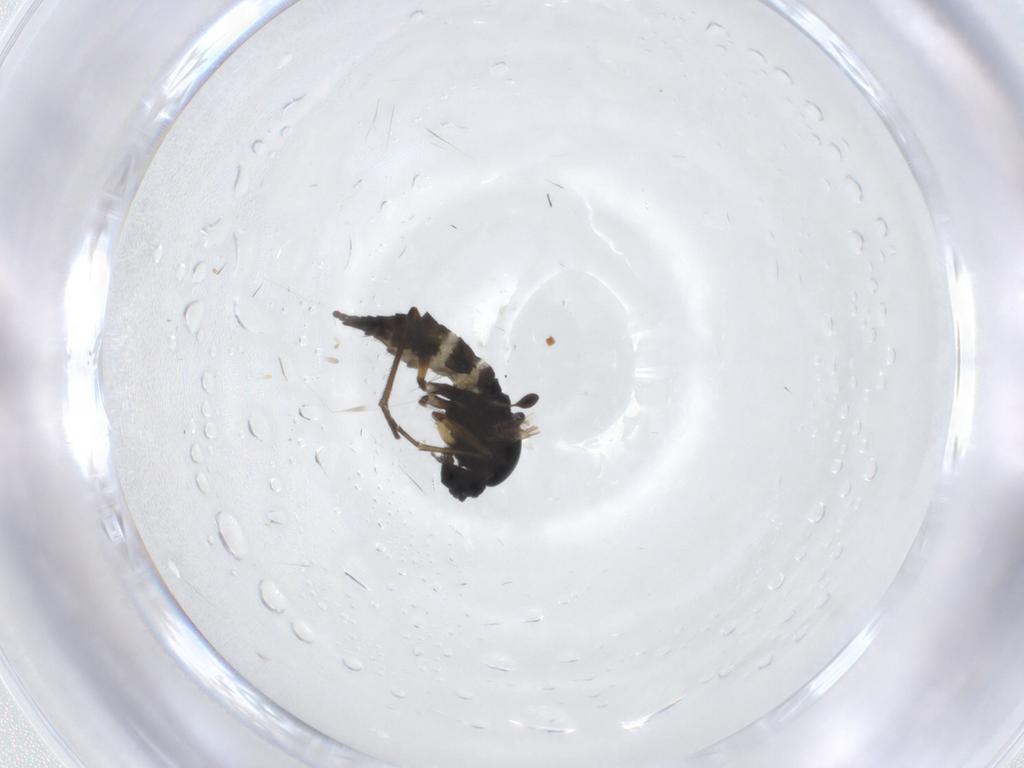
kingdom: Animalia
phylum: Arthropoda
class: Insecta
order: Diptera
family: Sciaridae
